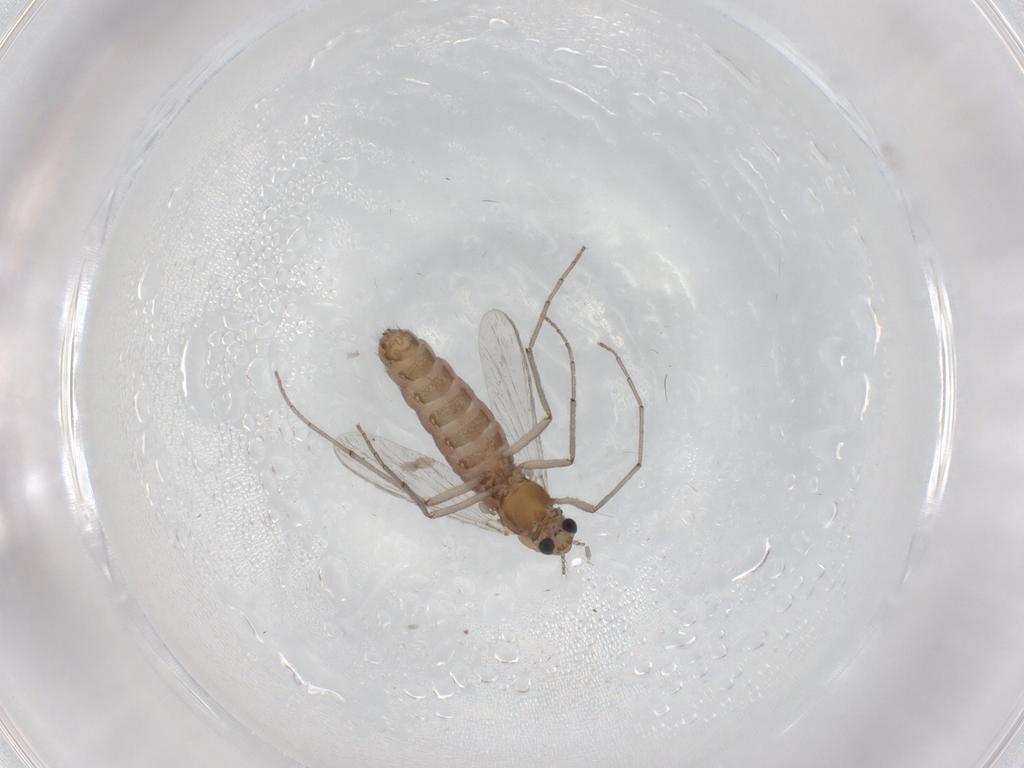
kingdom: Animalia
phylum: Arthropoda
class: Insecta
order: Diptera
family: Chironomidae
